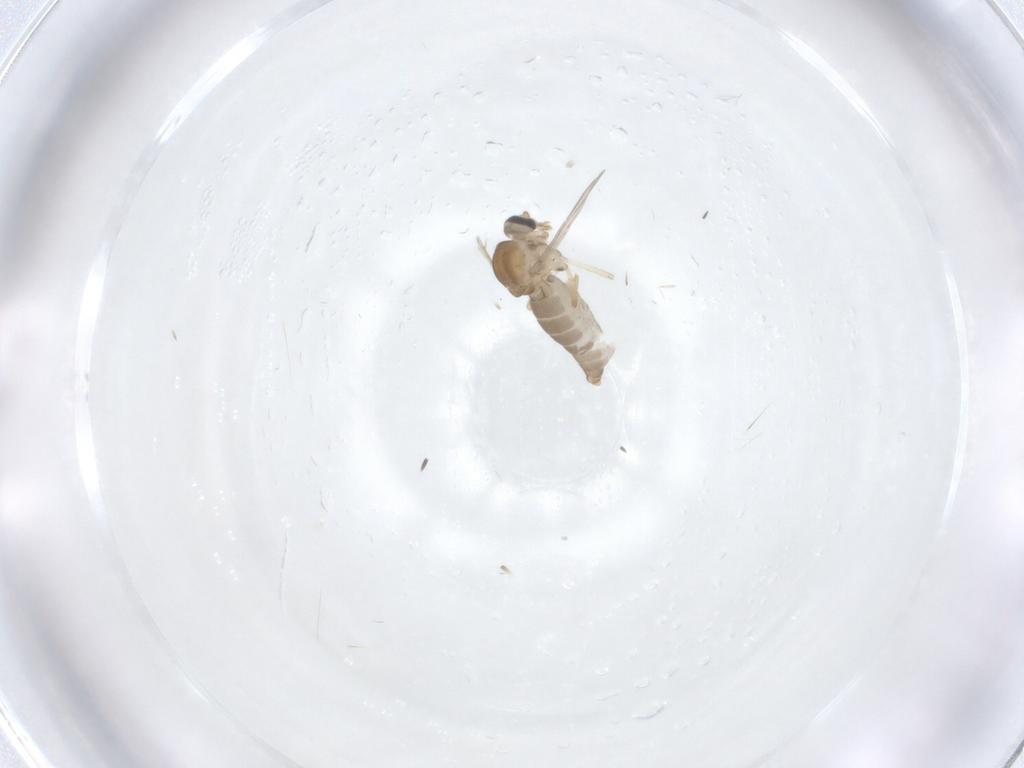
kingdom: Animalia
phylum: Arthropoda
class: Insecta
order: Diptera
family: Ceratopogonidae
